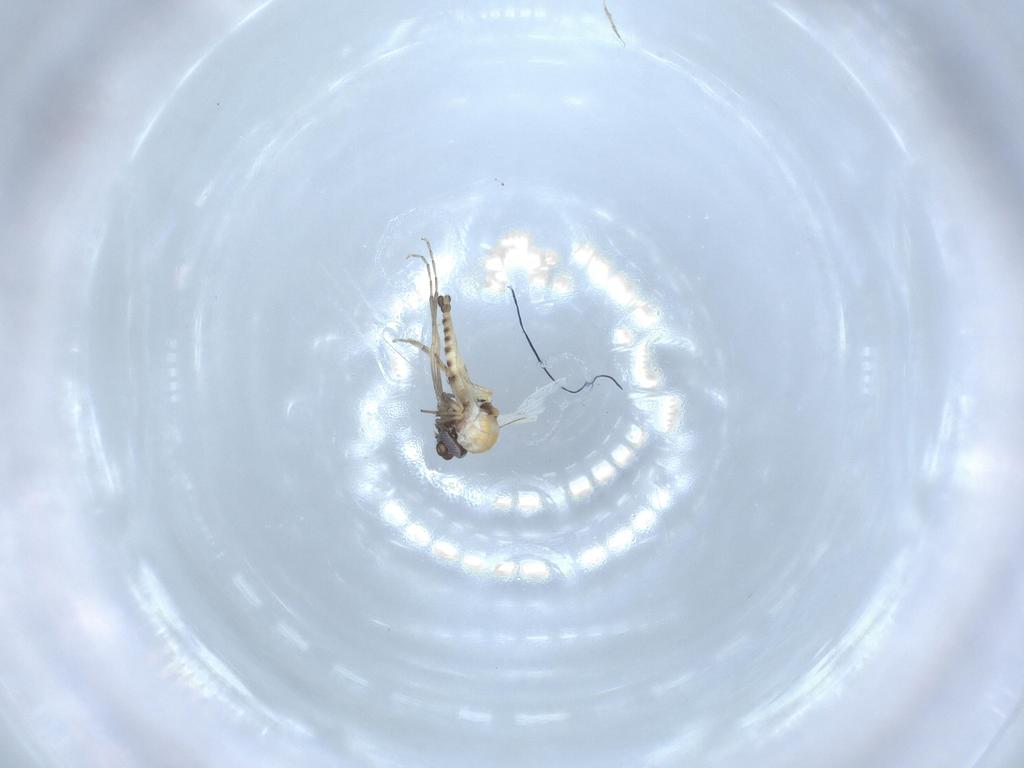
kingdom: Animalia
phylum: Arthropoda
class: Insecta
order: Diptera
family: Ceratopogonidae
